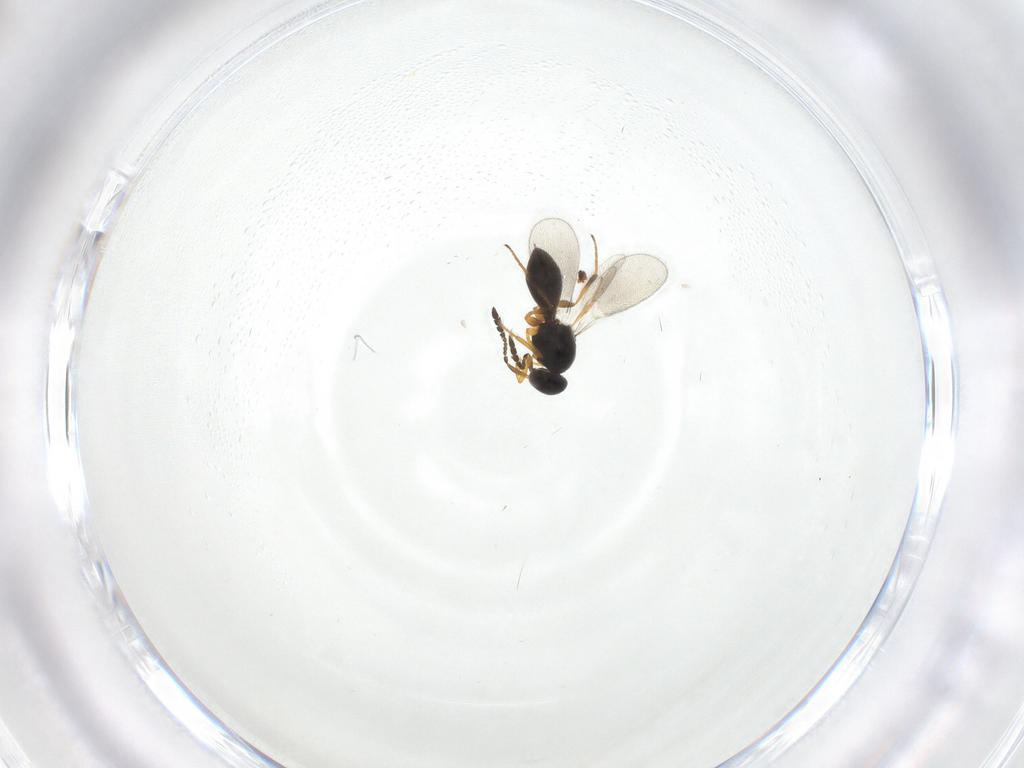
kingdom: Animalia
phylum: Arthropoda
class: Insecta
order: Hymenoptera
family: Platygastridae
